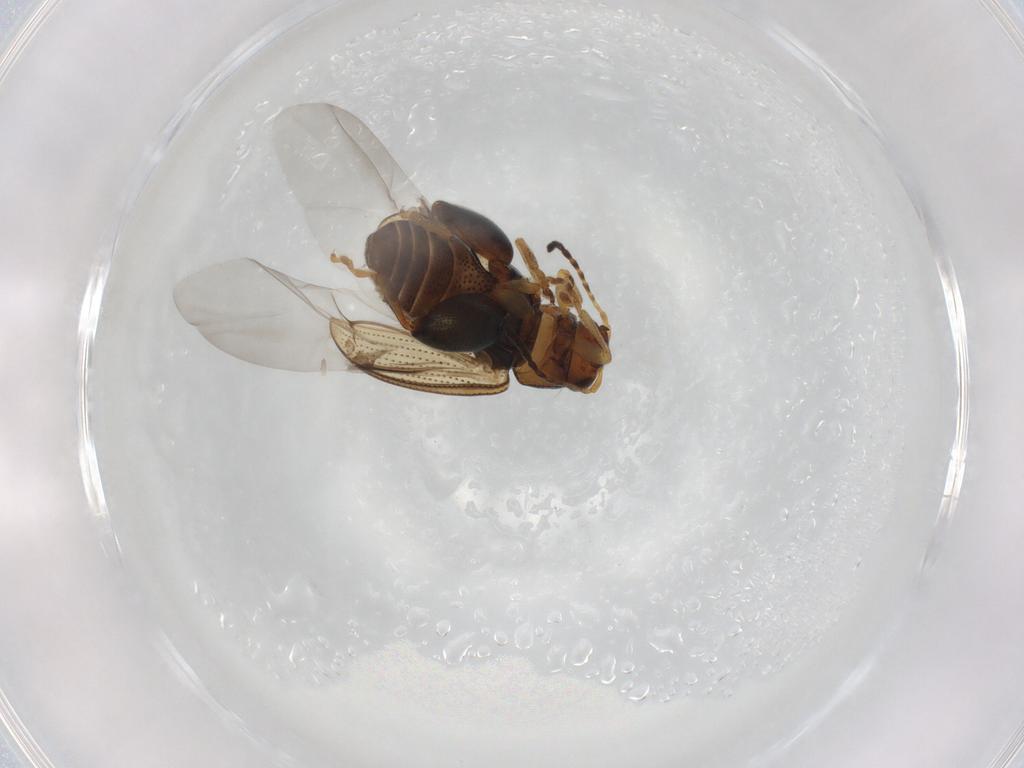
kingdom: Animalia
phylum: Arthropoda
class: Insecta
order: Coleoptera
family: Chrysomelidae
